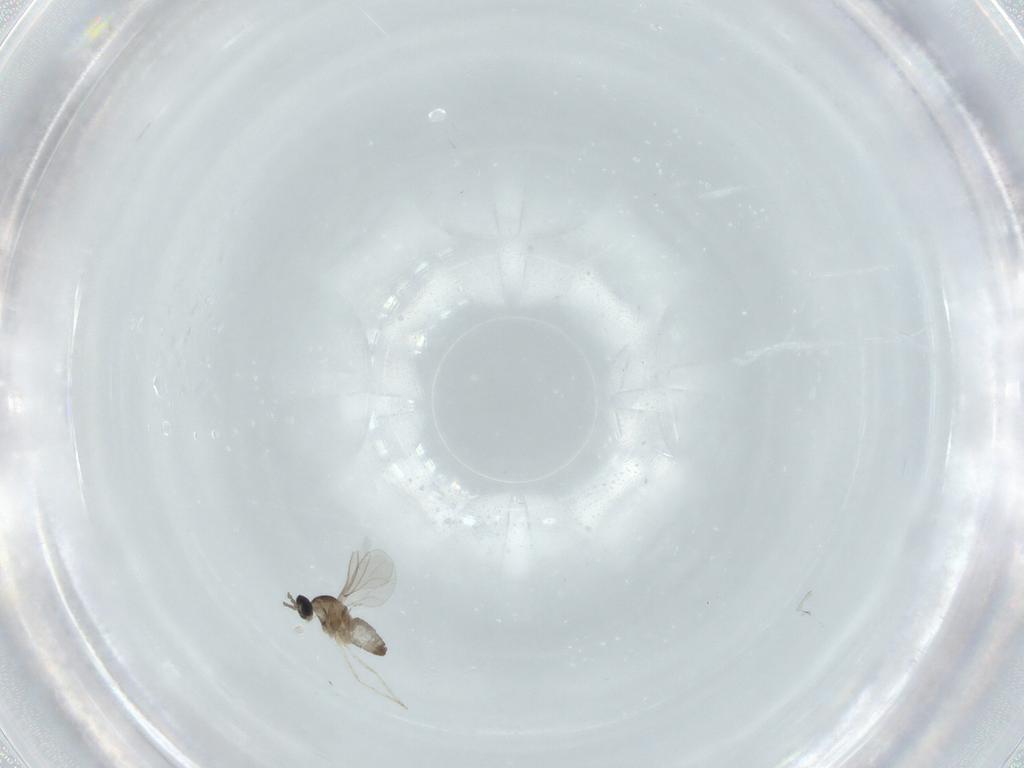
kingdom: Animalia
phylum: Arthropoda
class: Insecta
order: Diptera
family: Cecidomyiidae
